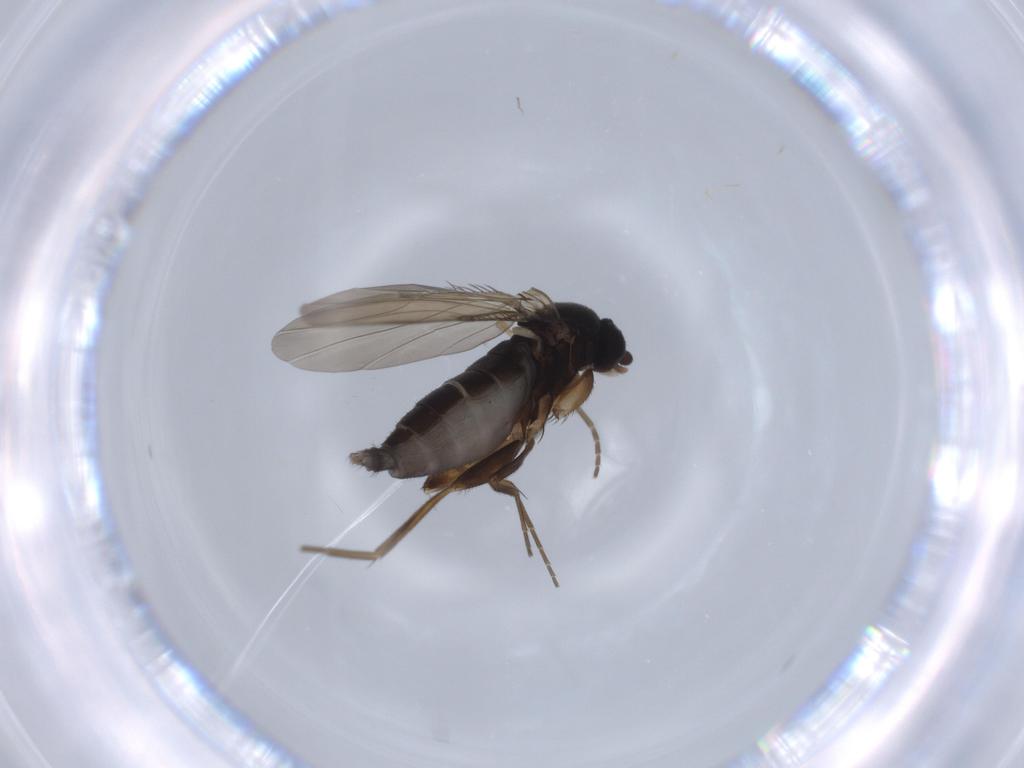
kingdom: Animalia
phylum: Arthropoda
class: Insecta
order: Diptera
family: Phoridae
